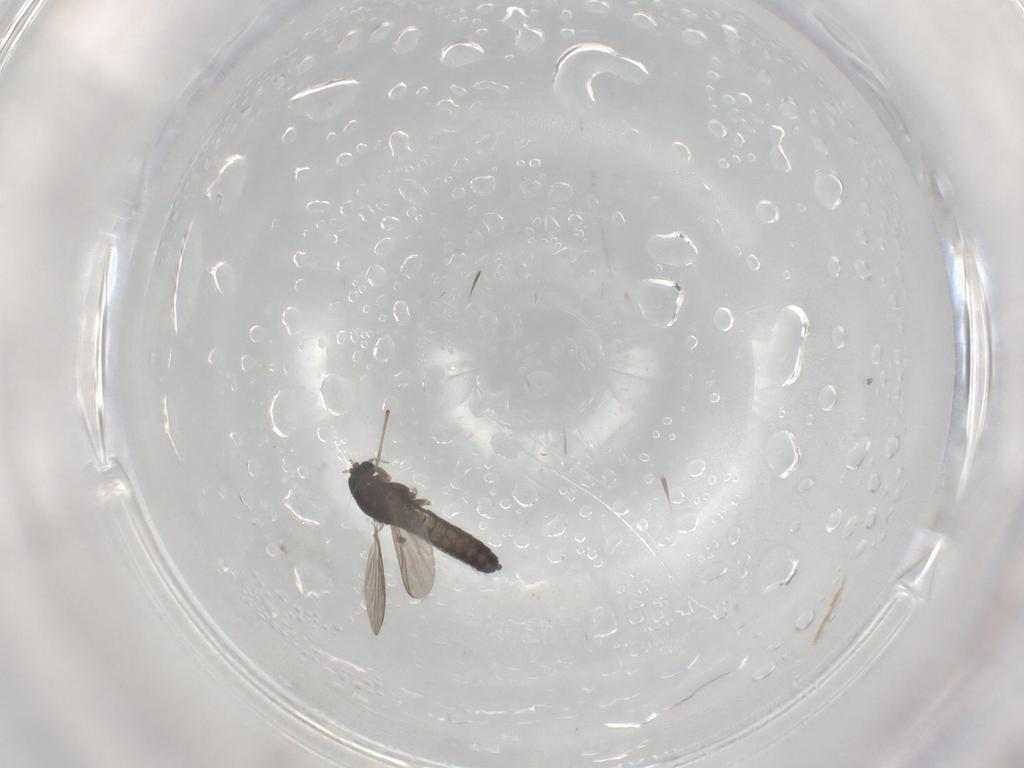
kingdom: Animalia
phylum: Arthropoda
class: Insecta
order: Diptera
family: Chironomidae
